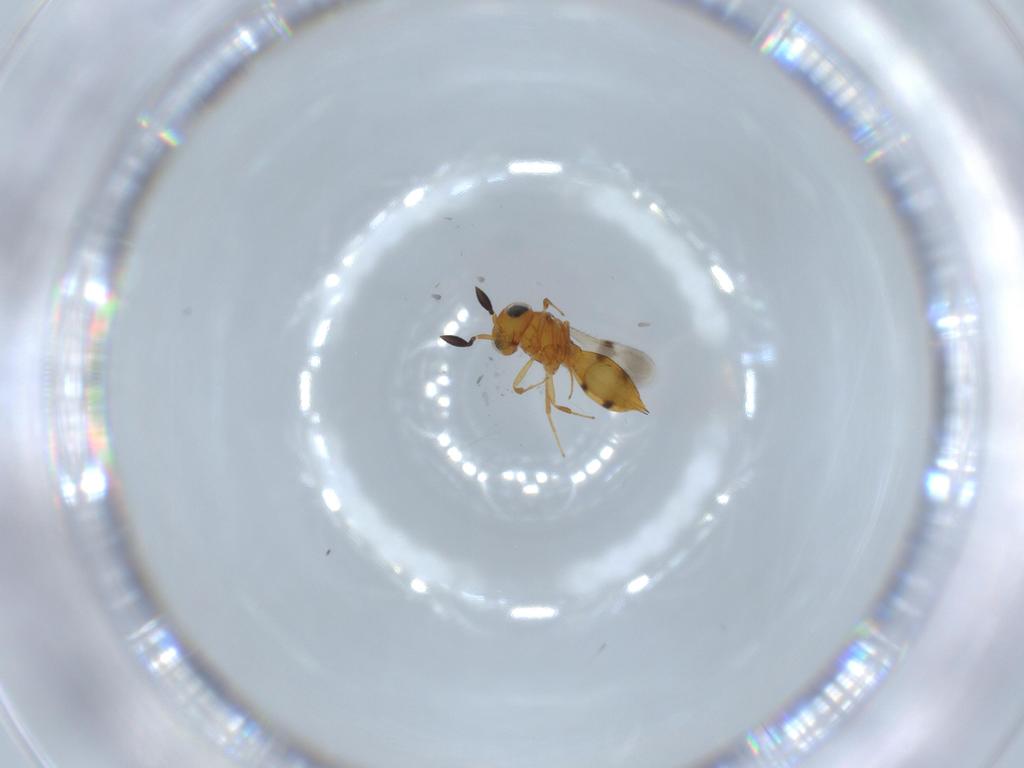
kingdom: Animalia
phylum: Arthropoda
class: Insecta
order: Hymenoptera
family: Scelionidae
